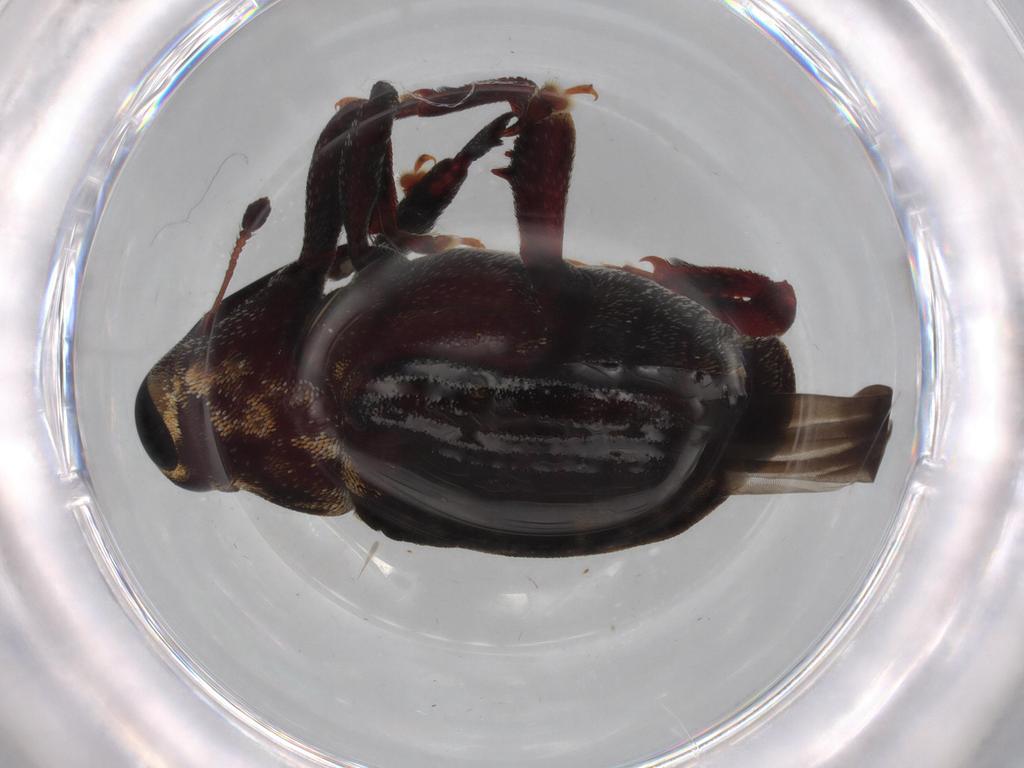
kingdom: Animalia
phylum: Arthropoda
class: Insecta
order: Coleoptera
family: Curculionidae
